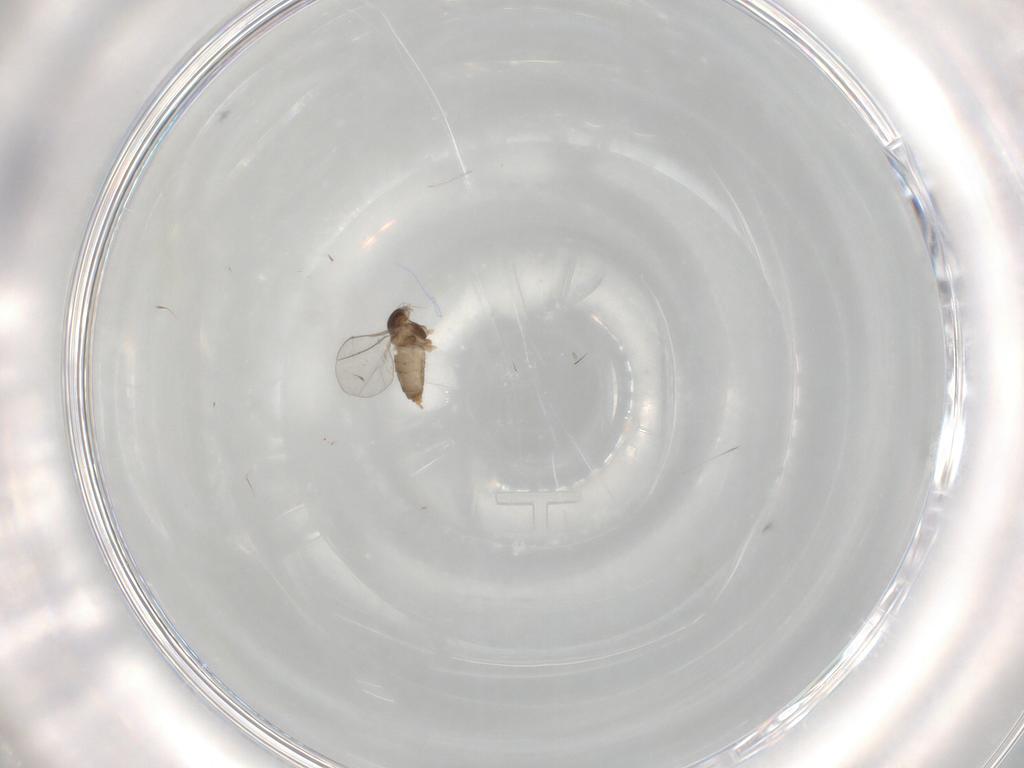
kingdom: Animalia
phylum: Arthropoda
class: Insecta
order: Diptera
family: Cecidomyiidae
